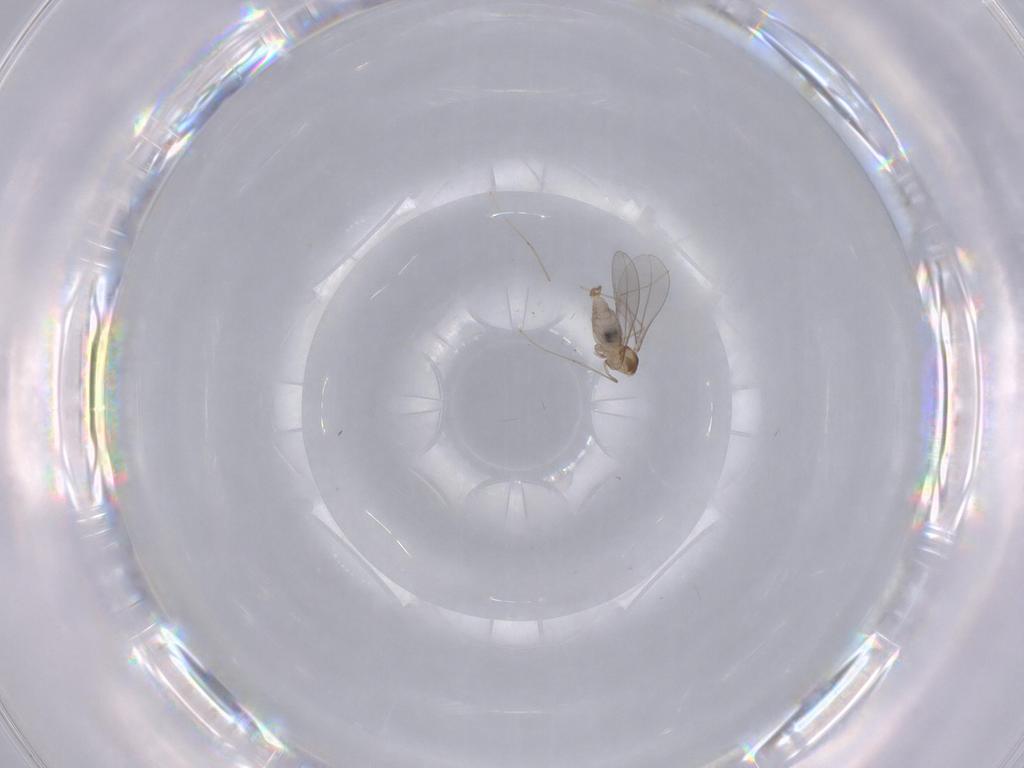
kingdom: Animalia
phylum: Arthropoda
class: Insecta
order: Diptera
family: Cecidomyiidae
